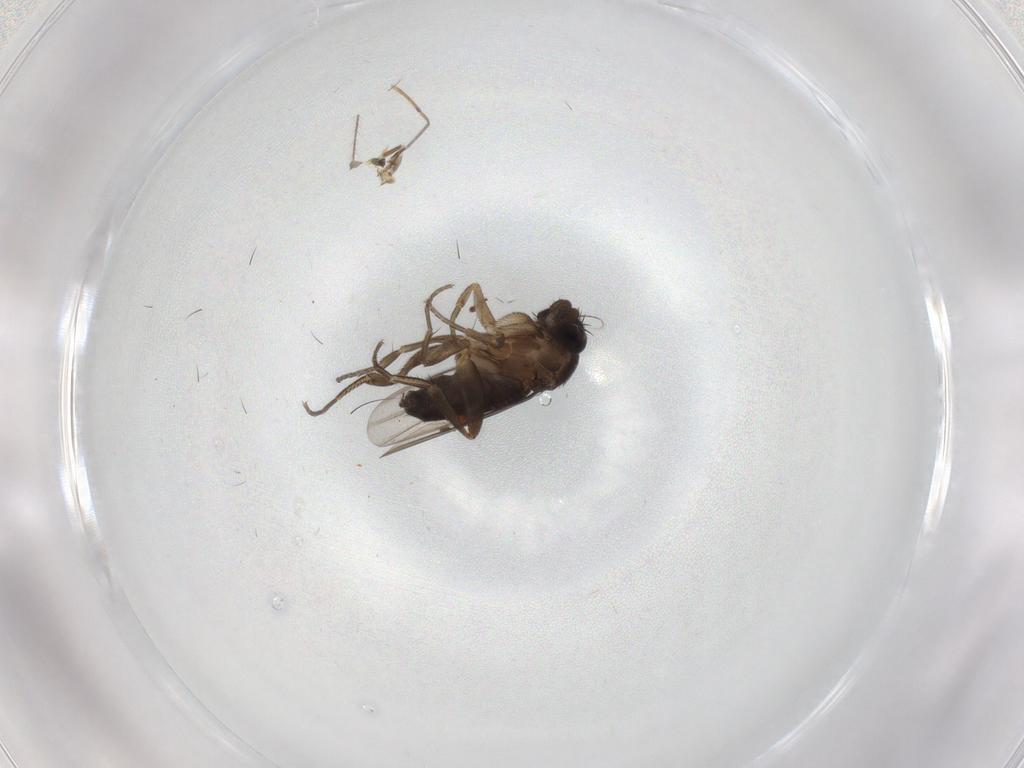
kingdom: Animalia
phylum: Arthropoda
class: Insecta
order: Diptera
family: Phoridae
